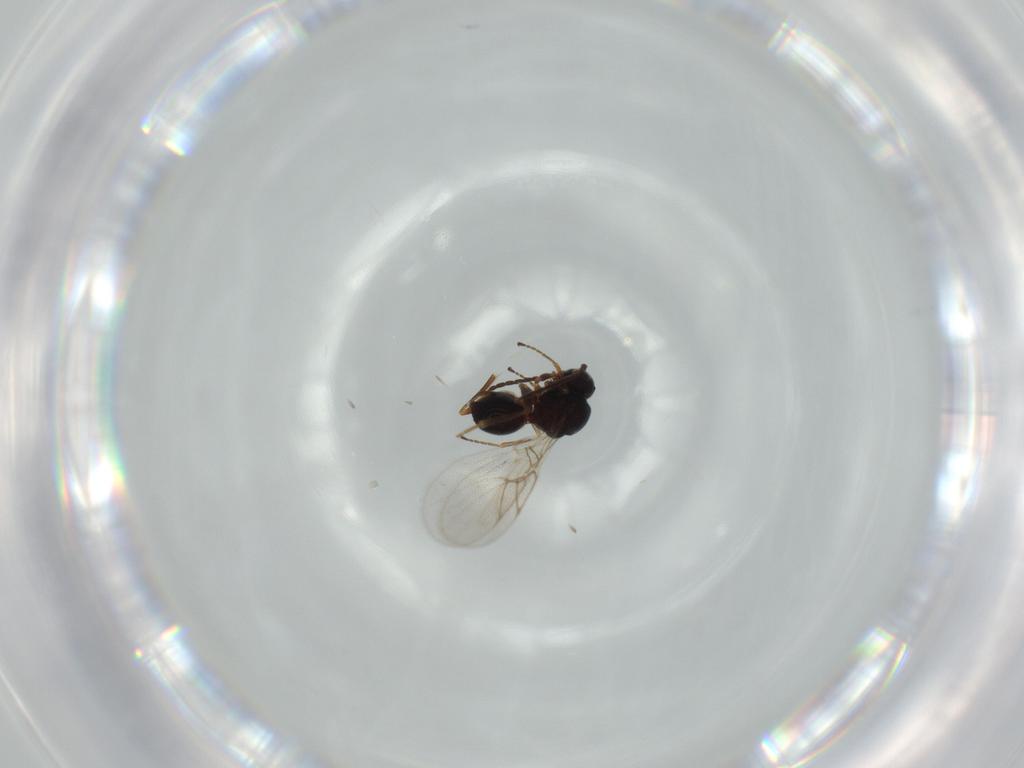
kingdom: Animalia
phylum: Arthropoda
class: Insecta
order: Hymenoptera
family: Figitidae
